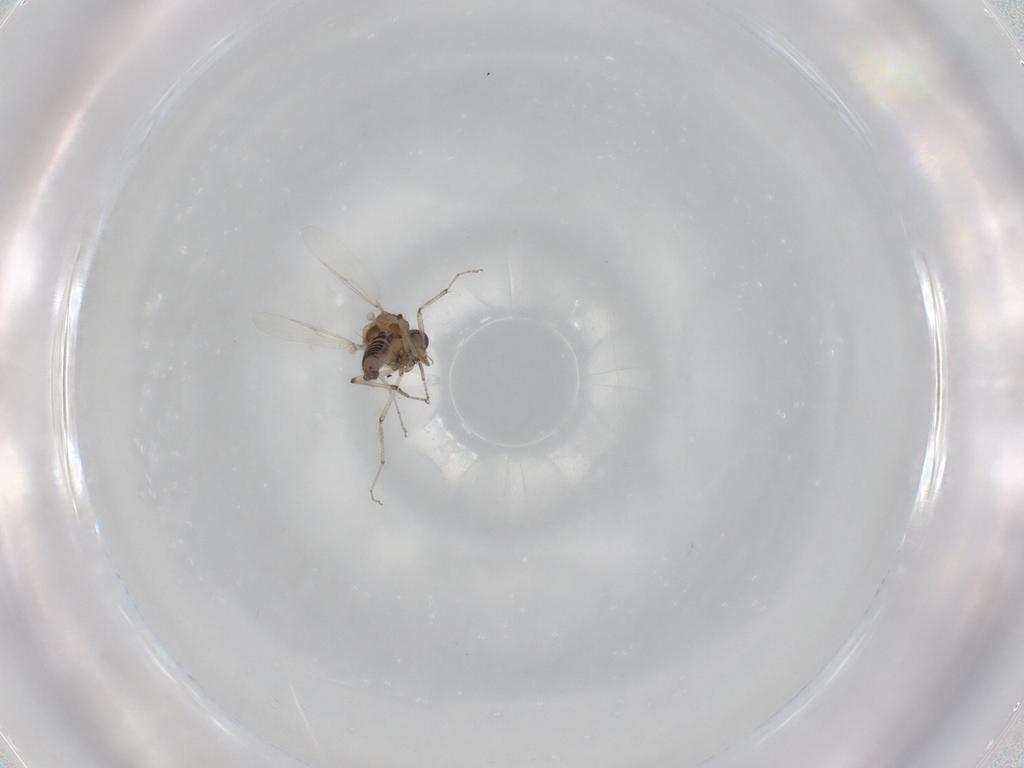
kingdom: Animalia
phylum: Arthropoda
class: Insecta
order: Diptera
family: Ceratopogonidae
